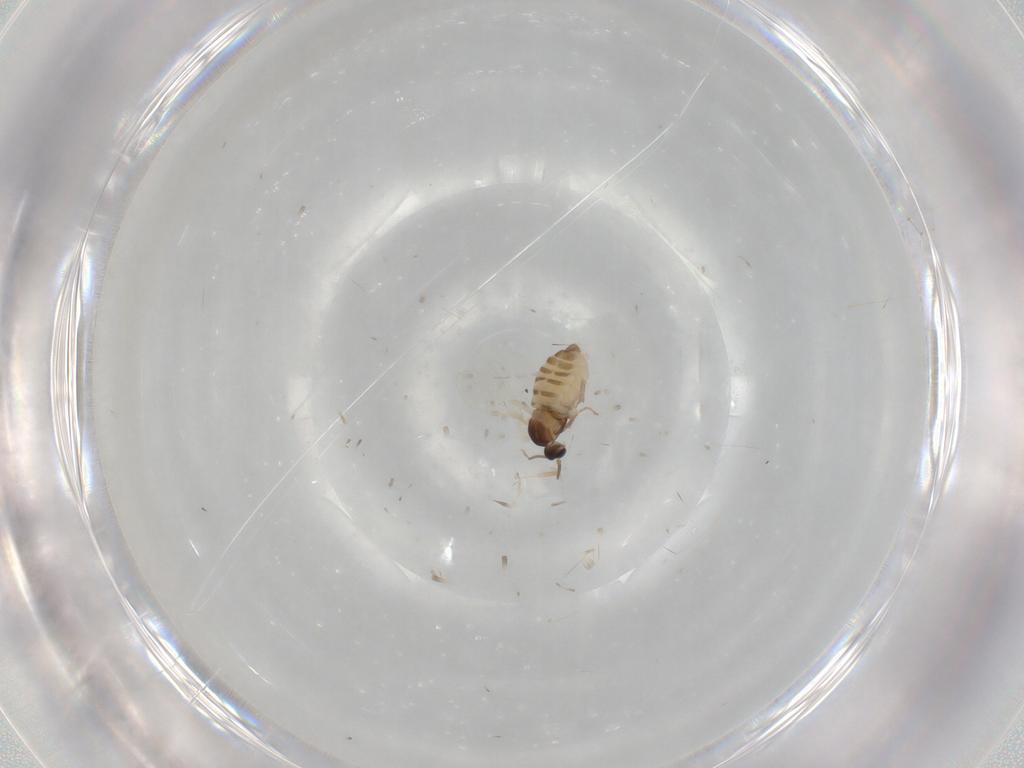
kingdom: Animalia
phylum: Arthropoda
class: Insecta
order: Diptera
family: Cecidomyiidae
